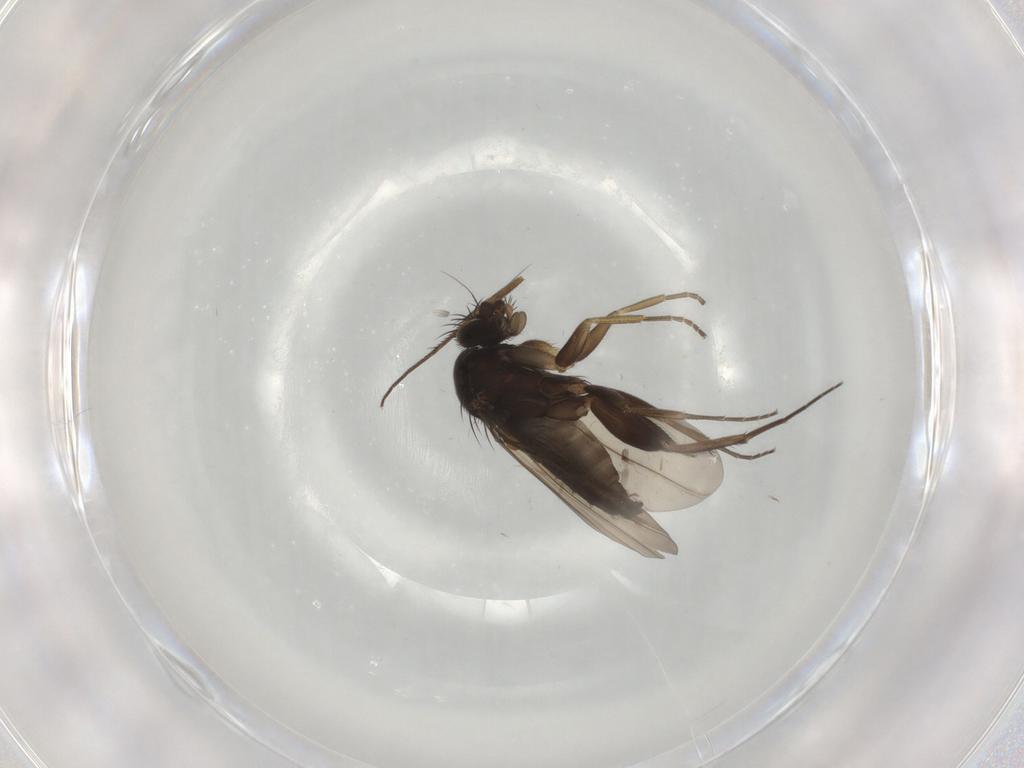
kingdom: Animalia
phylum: Arthropoda
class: Insecta
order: Diptera
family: Phoridae
